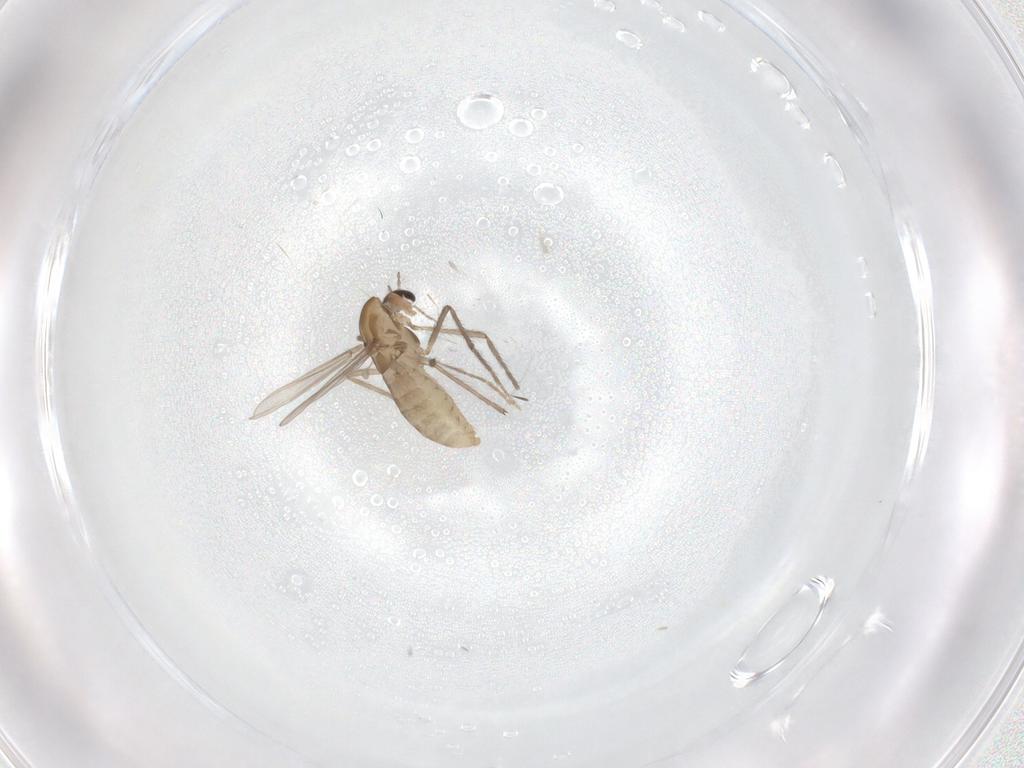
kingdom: Animalia
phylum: Arthropoda
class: Insecta
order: Diptera
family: Chironomidae
